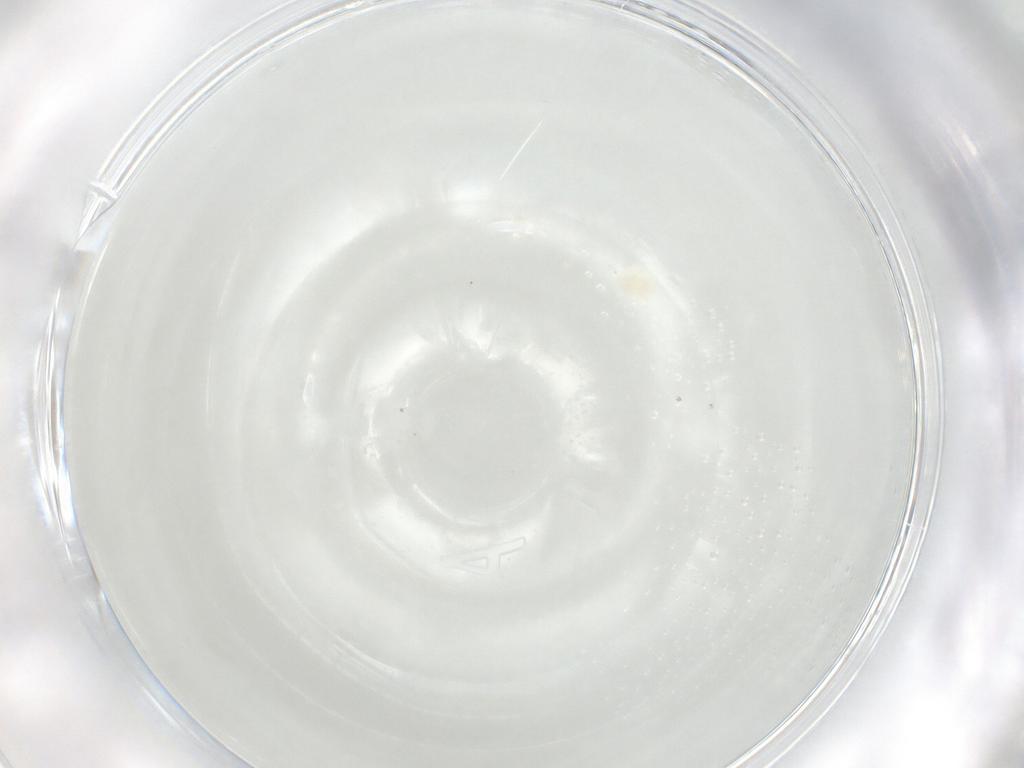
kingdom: Animalia
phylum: Arthropoda
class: Arachnida
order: Trombidiformes
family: Eupodidae
